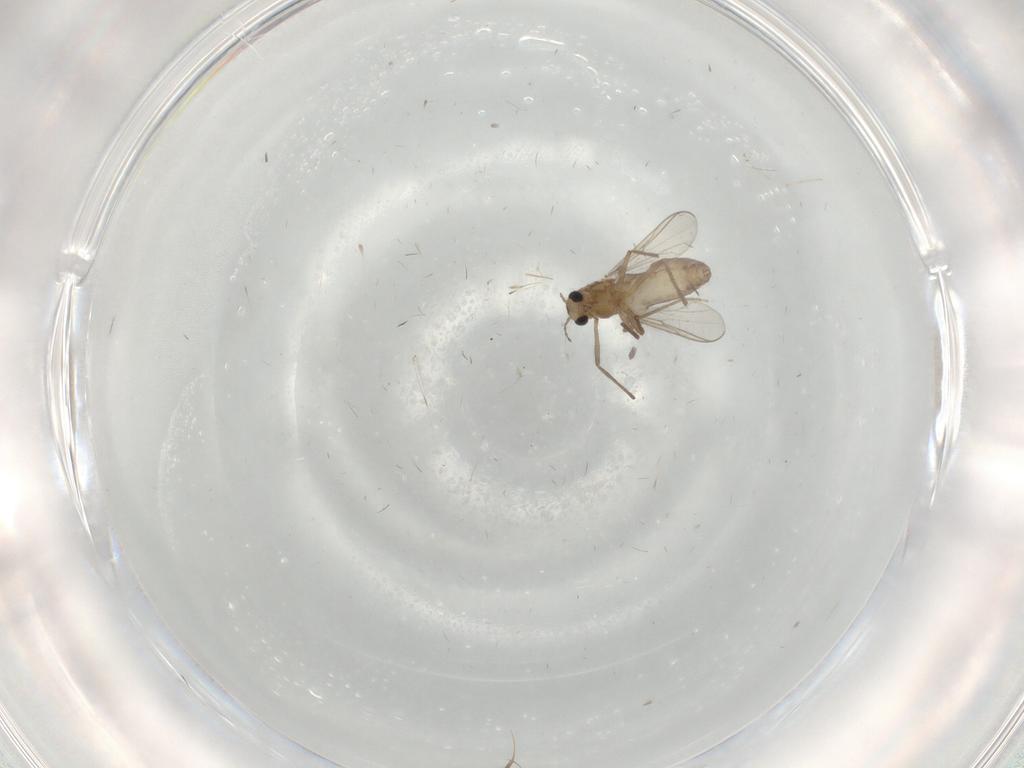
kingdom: Animalia
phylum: Arthropoda
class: Insecta
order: Diptera
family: Chironomidae
